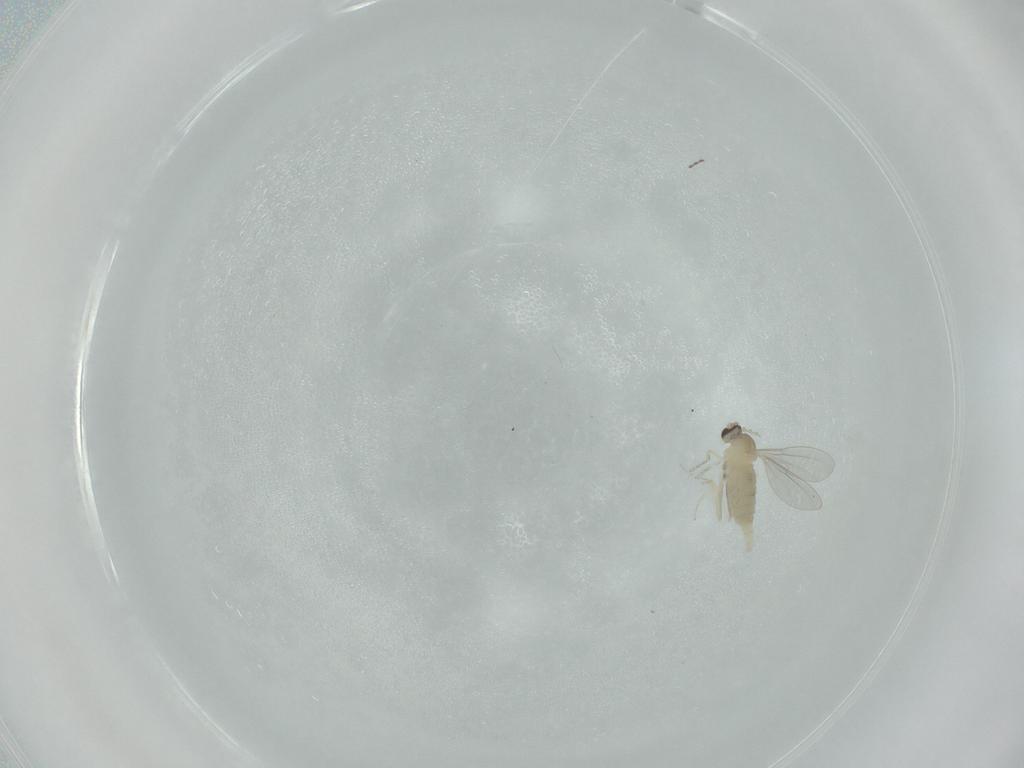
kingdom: Animalia
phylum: Arthropoda
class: Insecta
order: Diptera
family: Cecidomyiidae
